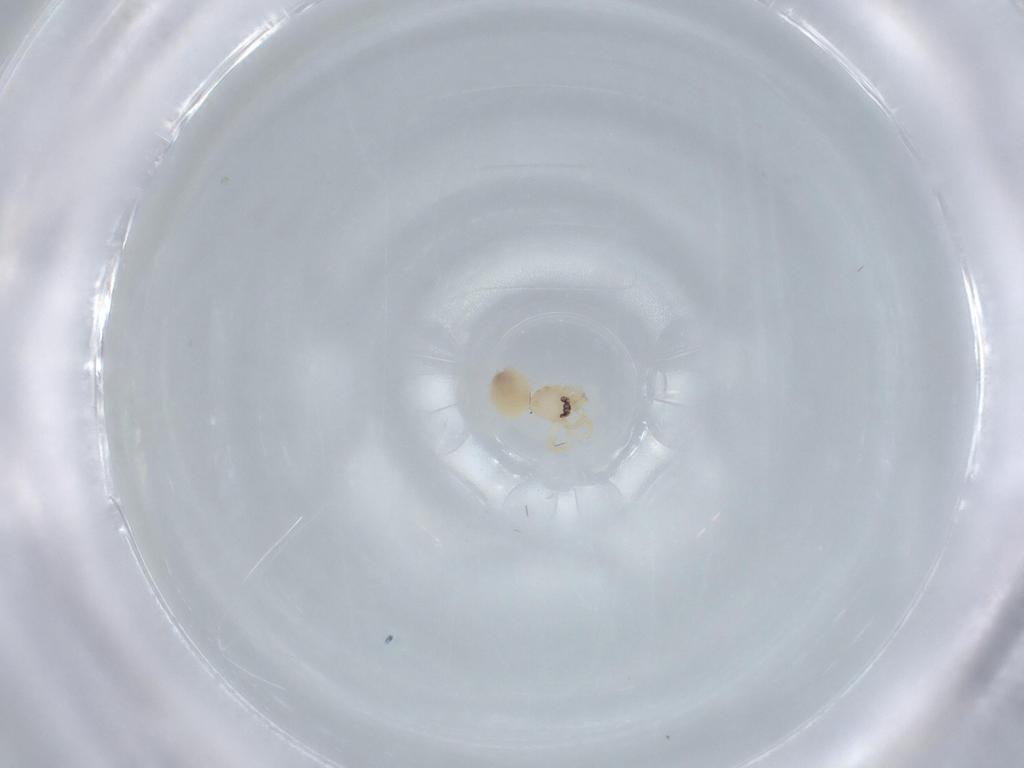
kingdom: Animalia
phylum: Arthropoda
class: Arachnida
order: Araneae
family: Oonopidae
